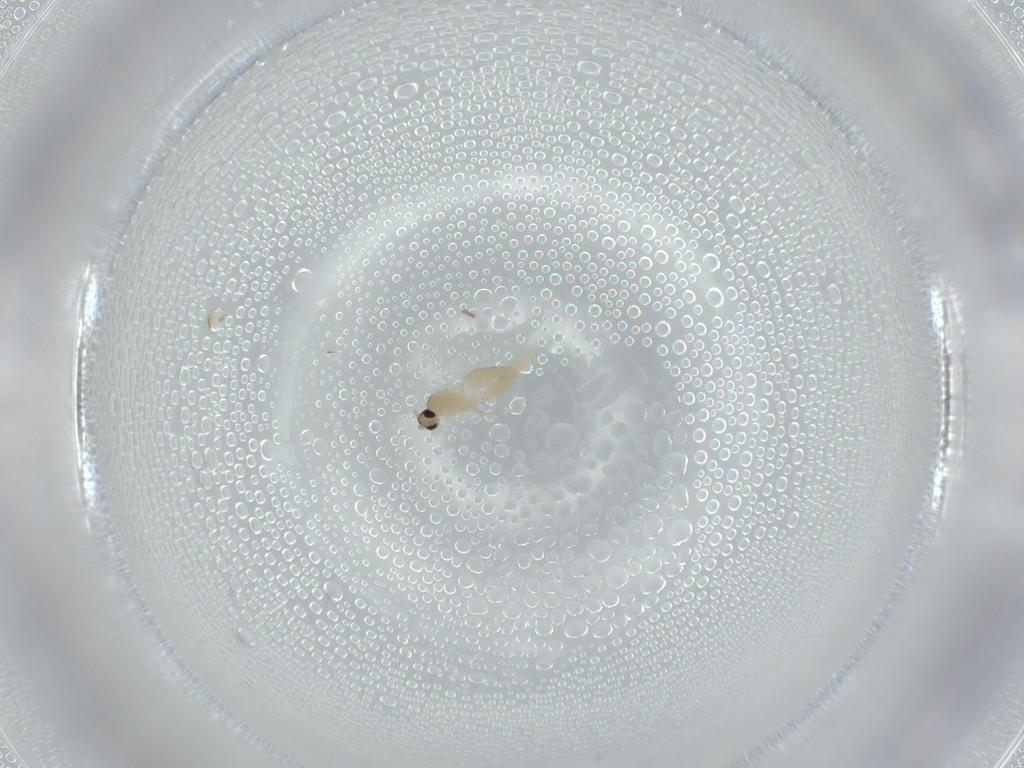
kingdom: Animalia
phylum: Arthropoda
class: Insecta
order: Diptera
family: Cecidomyiidae
